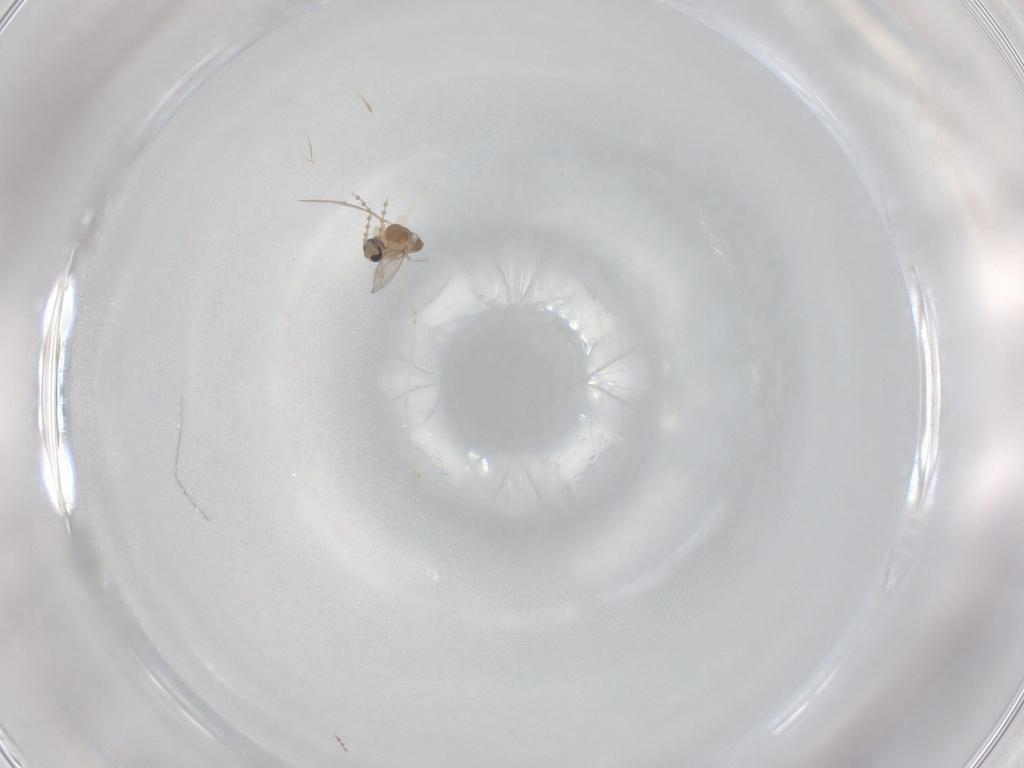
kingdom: Animalia
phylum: Arthropoda
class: Insecta
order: Diptera
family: Cecidomyiidae
